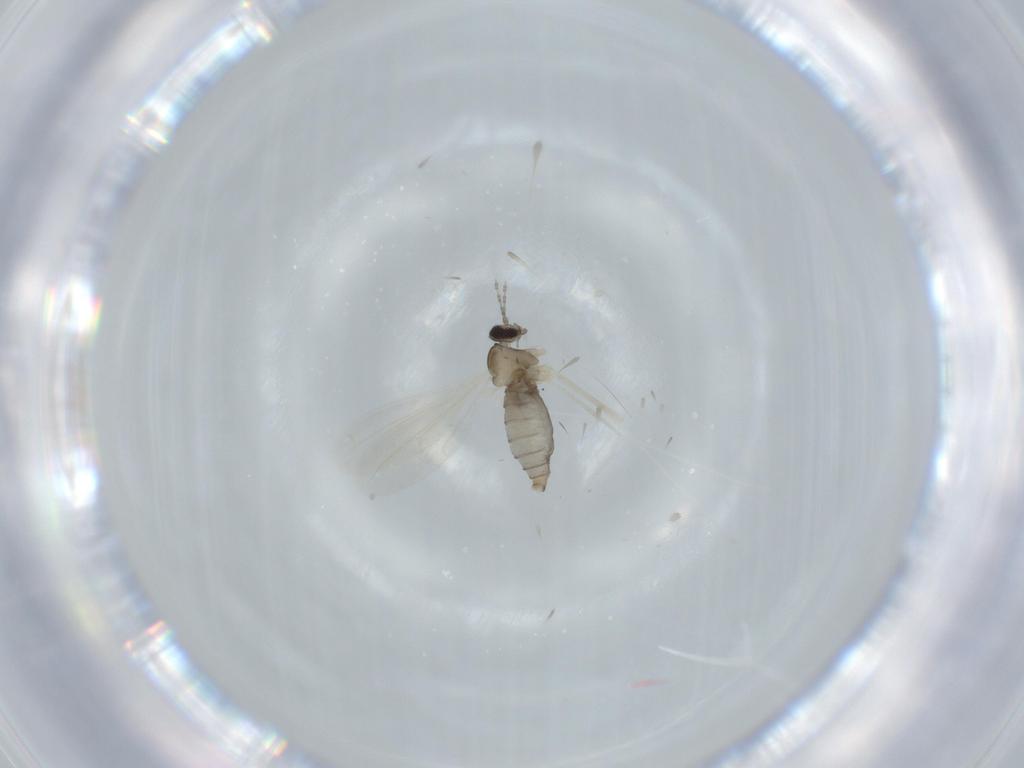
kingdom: Animalia
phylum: Arthropoda
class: Insecta
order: Diptera
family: Cecidomyiidae
